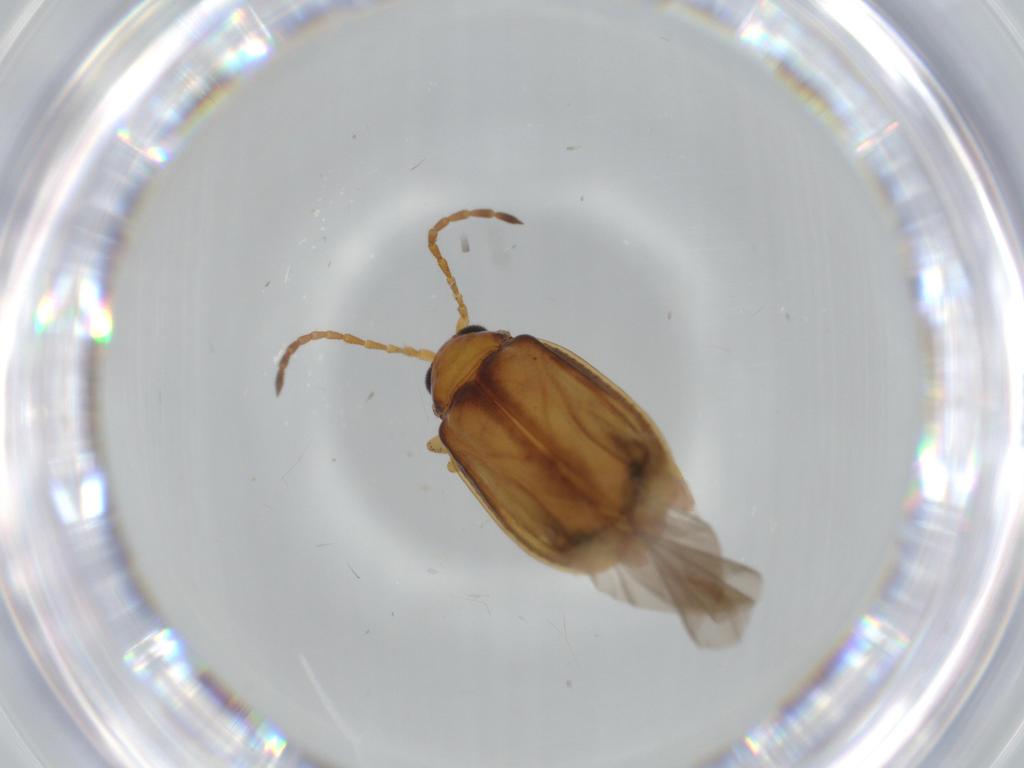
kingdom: Animalia
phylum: Arthropoda
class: Insecta
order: Coleoptera
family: Chrysomelidae
